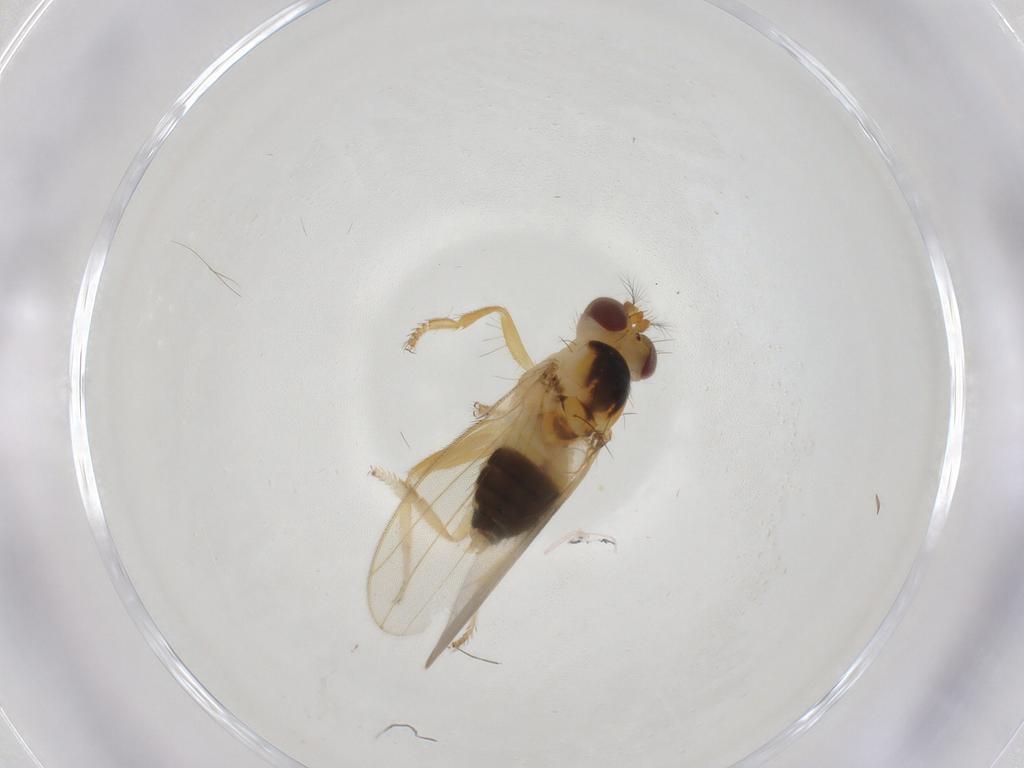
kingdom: Animalia
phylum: Arthropoda
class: Insecta
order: Diptera
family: Periscelididae
